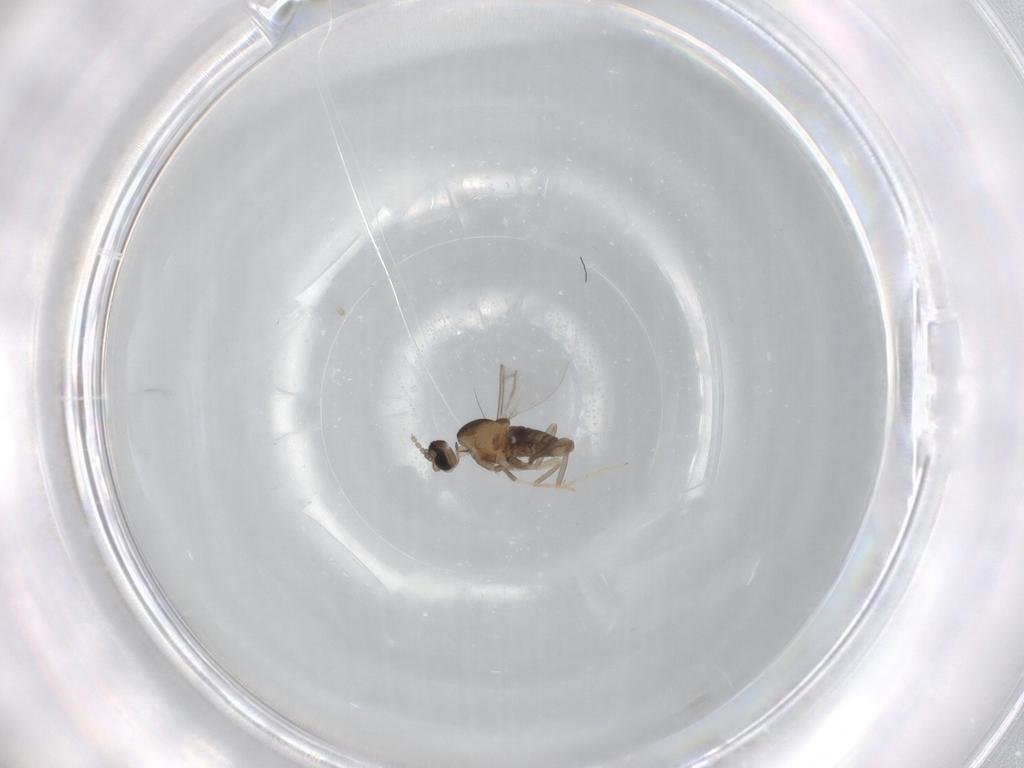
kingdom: Animalia
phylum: Arthropoda
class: Insecta
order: Diptera
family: Cecidomyiidae
